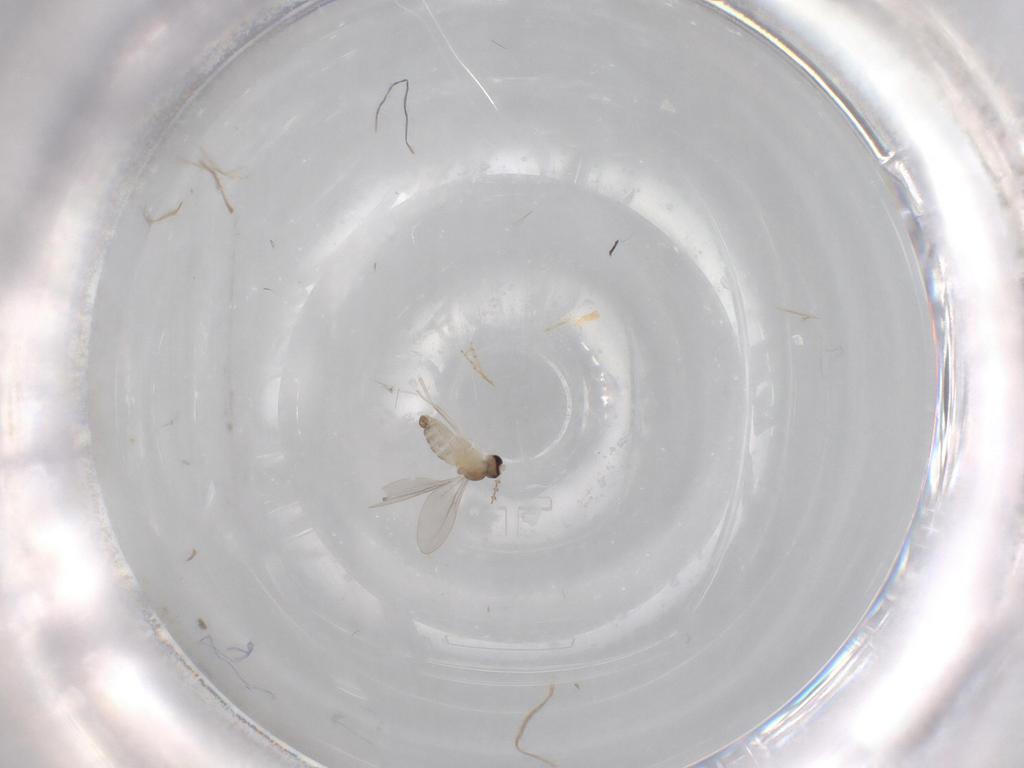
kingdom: Animalia
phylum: Arthropoda
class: Insecta
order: Diptera
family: Cecidomyiidae
